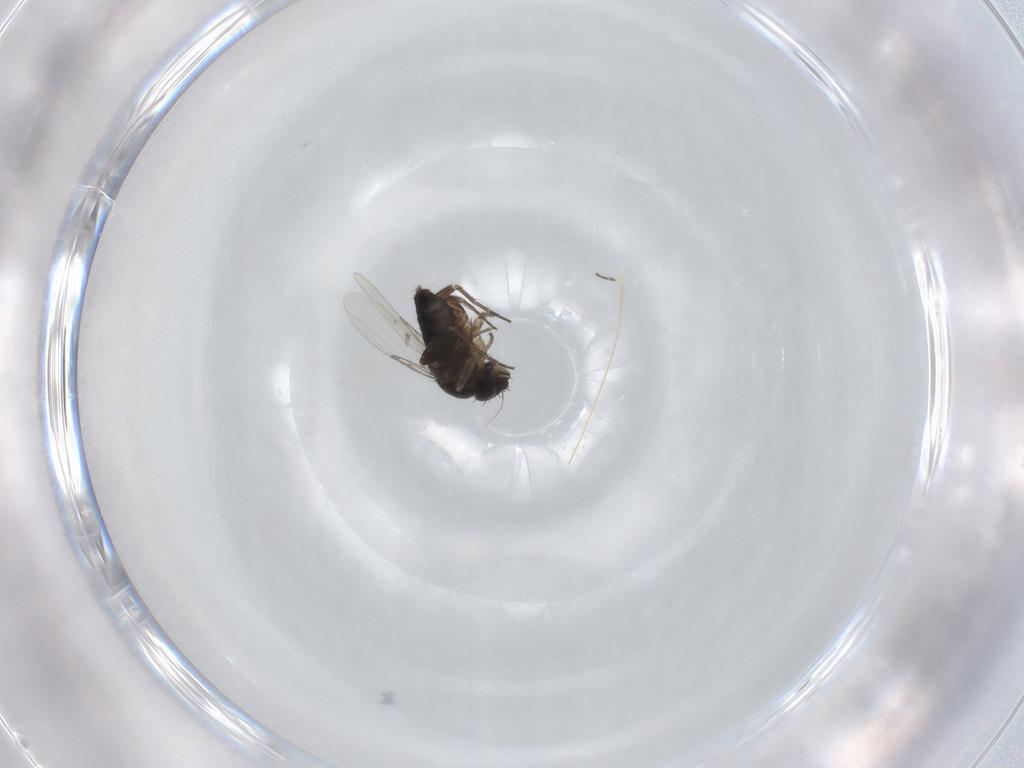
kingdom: Animalia
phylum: Arthropoda
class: Insecta
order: Diptera
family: Phoridae
